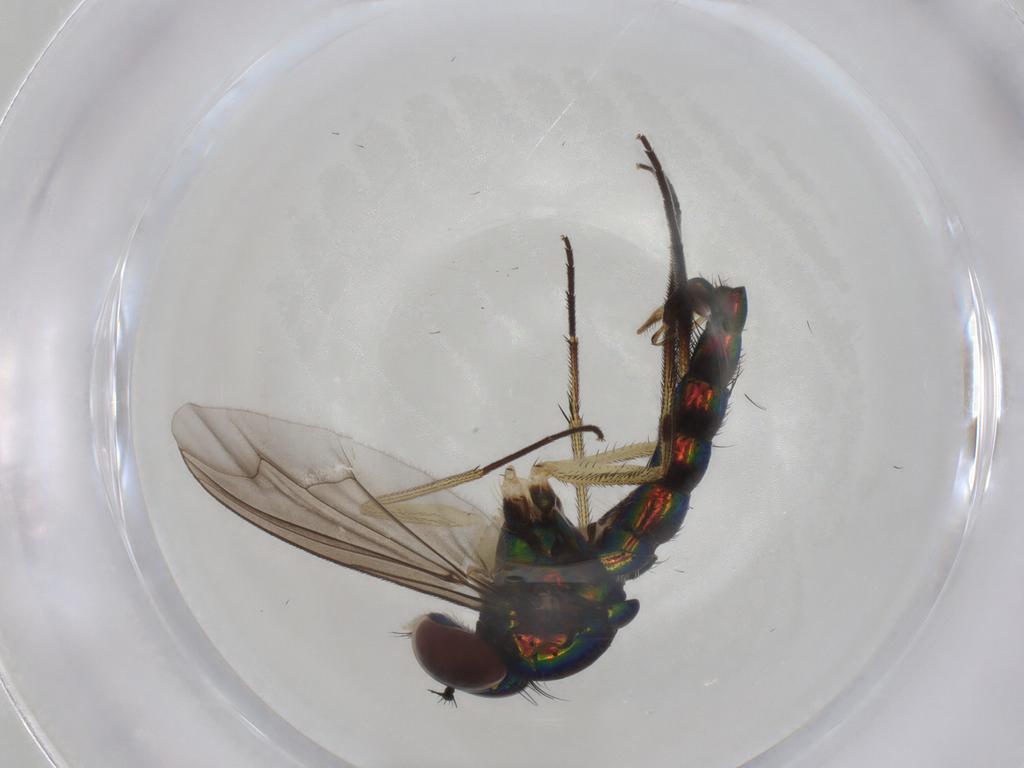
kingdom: Animalia
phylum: Arthropoda
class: Insecta
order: Diptera
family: Dolichopodidae
